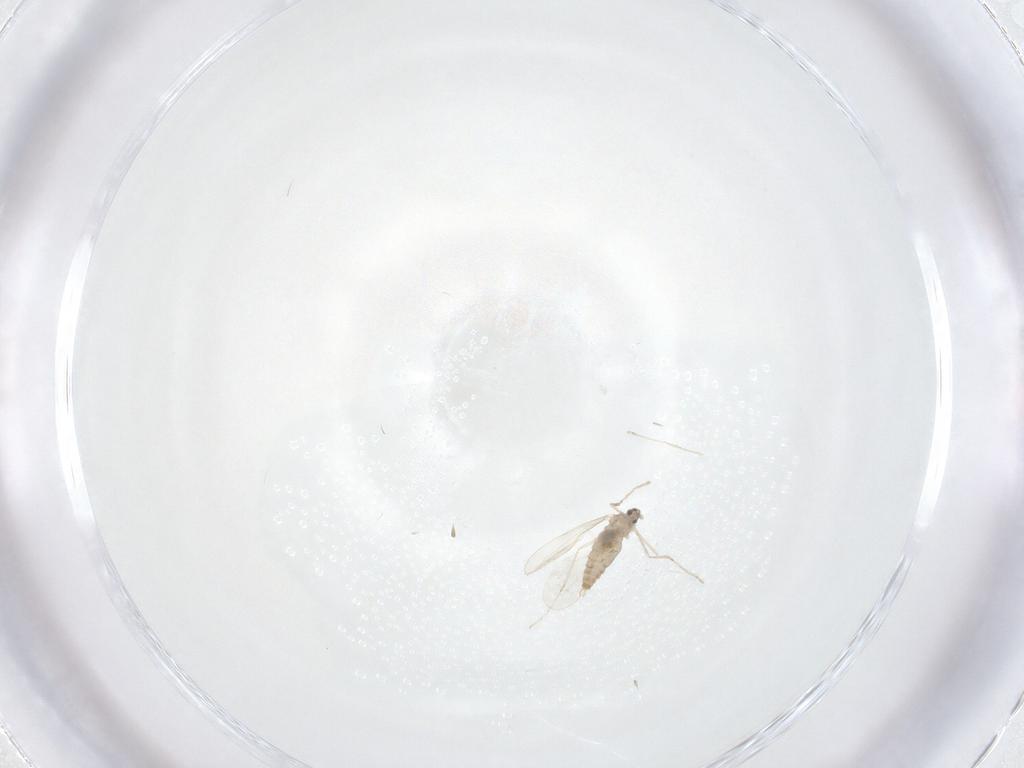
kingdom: Animalia
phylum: Arthropoda
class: Insecta
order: Diptera
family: Cecidomyiidae
